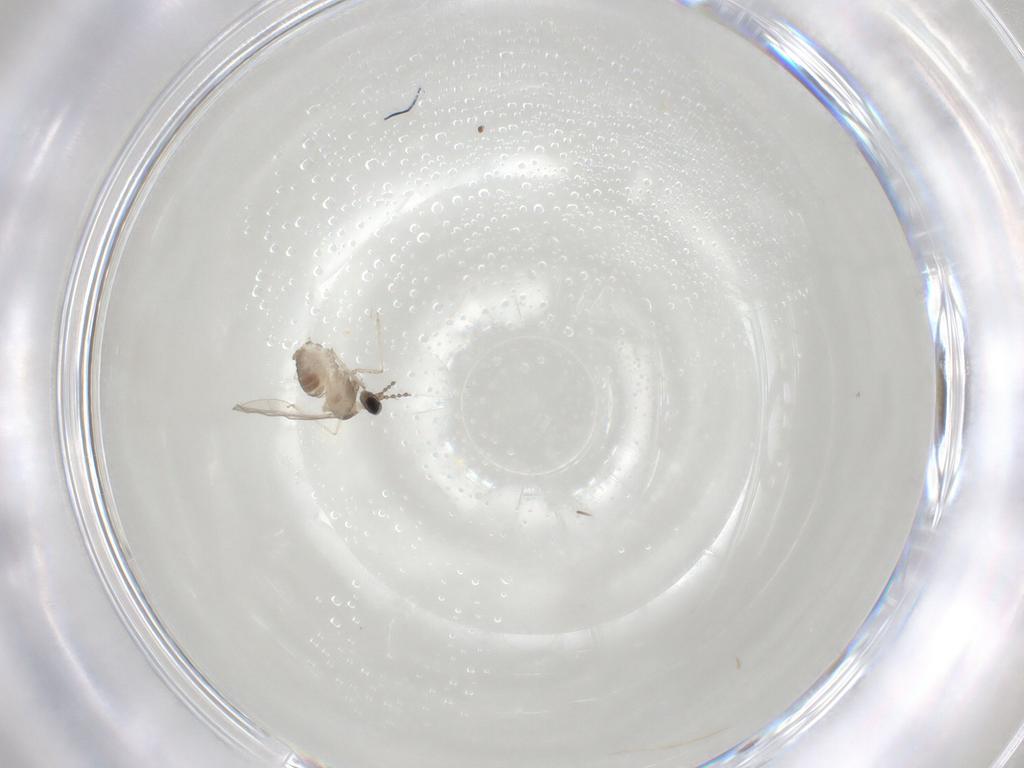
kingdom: Animalia
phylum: Arthropoda
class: Insecta
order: Diptera
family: Cecidomyiidae
